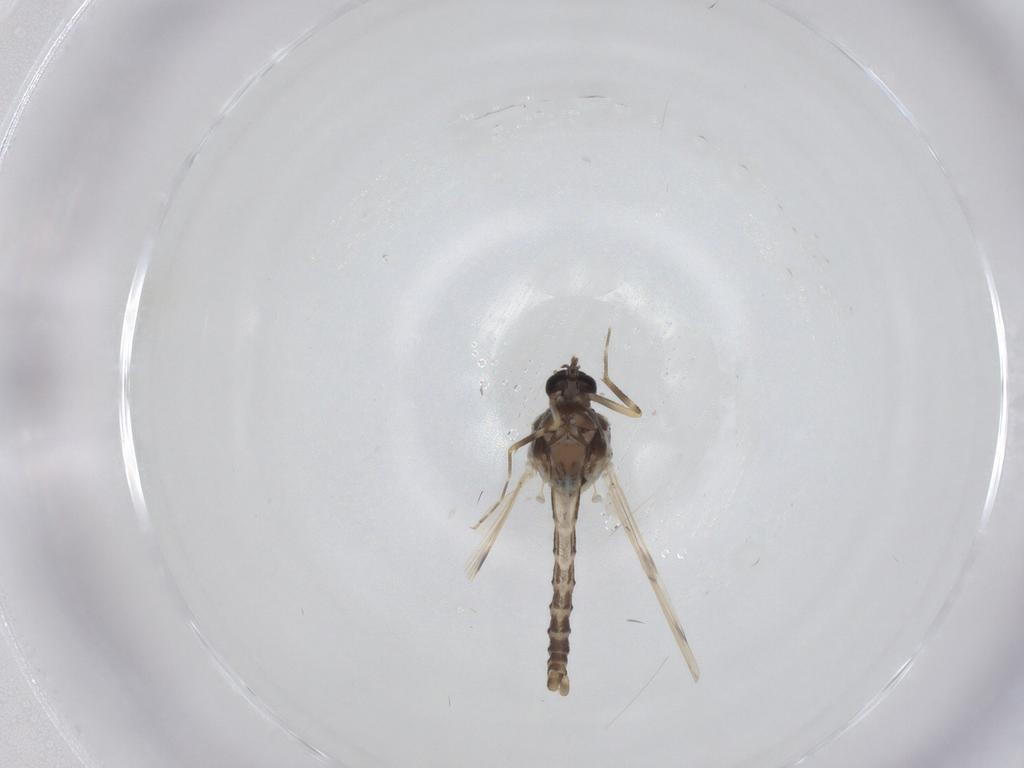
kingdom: Animalia
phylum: Arthropoda
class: Insecta
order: Diptera
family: Ceratopogonidae
